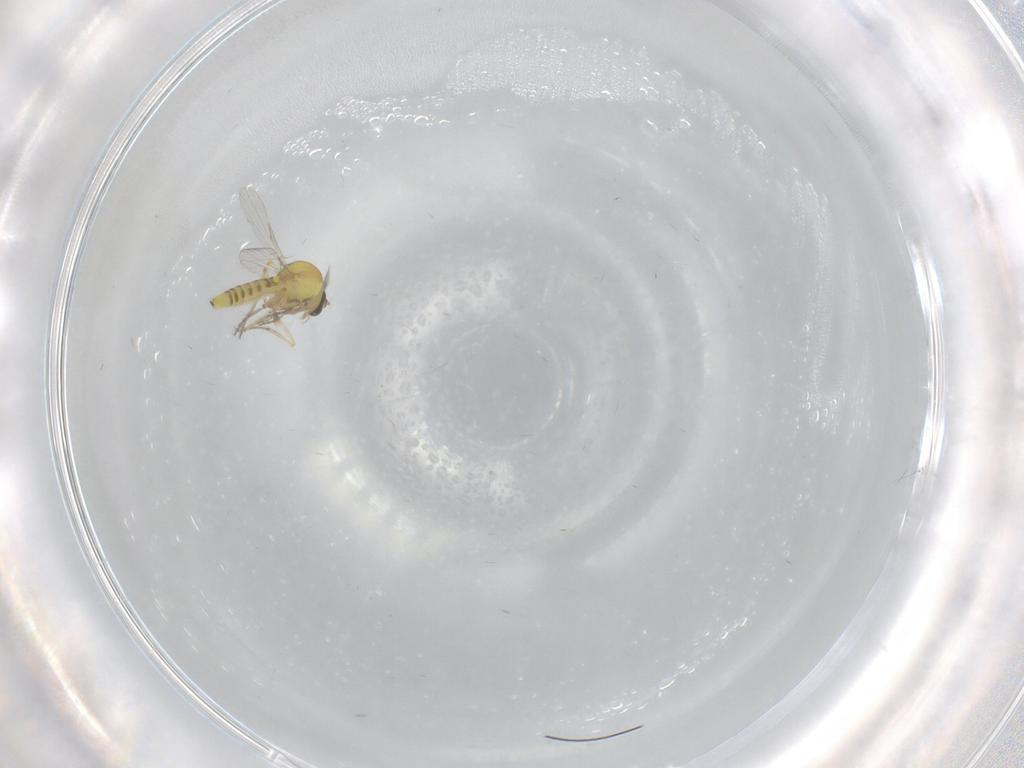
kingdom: Animalia
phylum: Arthropoda
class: Insecta
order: Diptera
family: Ceratopogonidae
